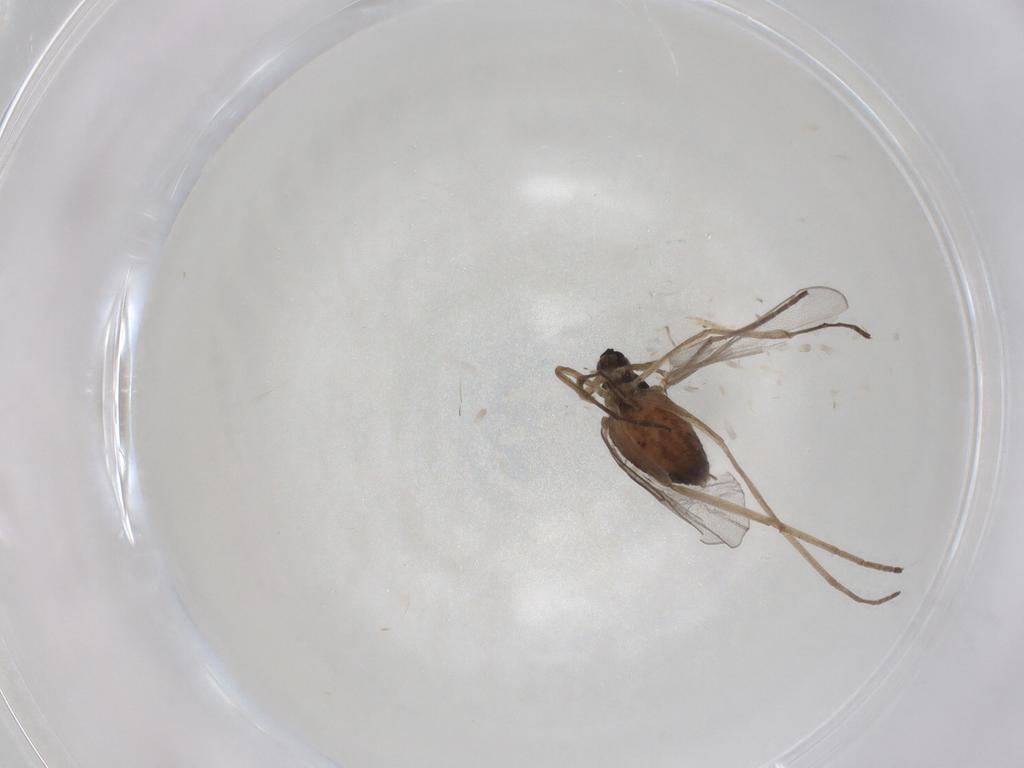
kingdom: Animalia
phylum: Arthropoda
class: Insecta
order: Diptera
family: Cecidomyiidae
